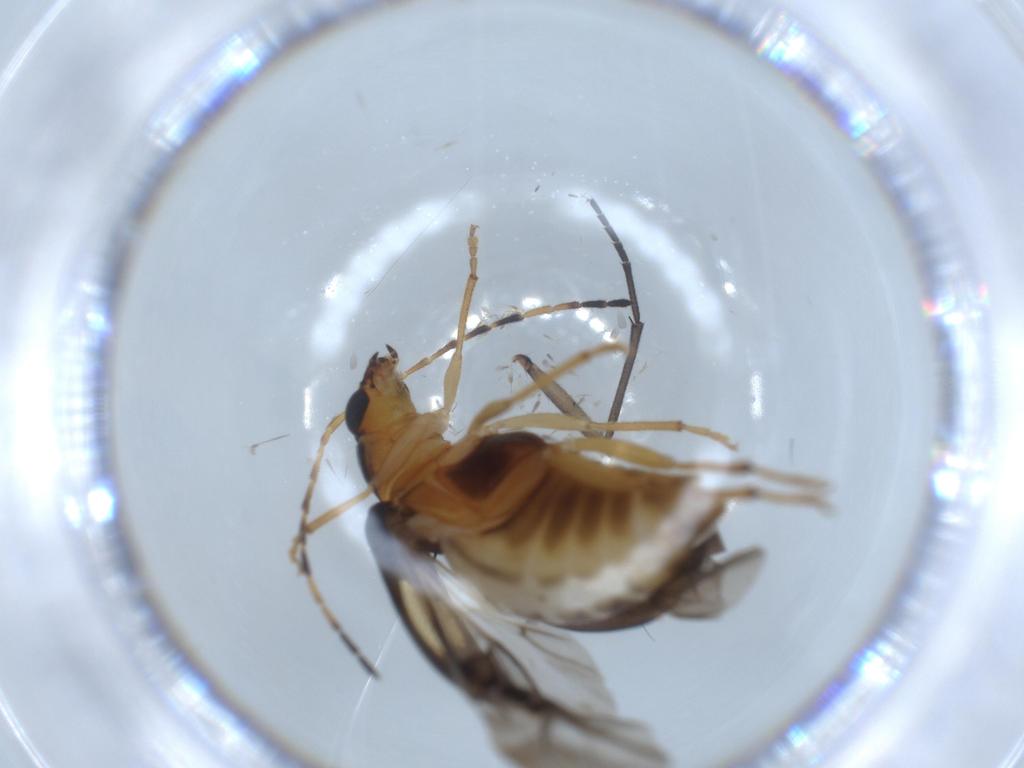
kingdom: Animalia
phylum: Arthropoda
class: Insecta
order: Coleoptera
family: Chrysomelidae
